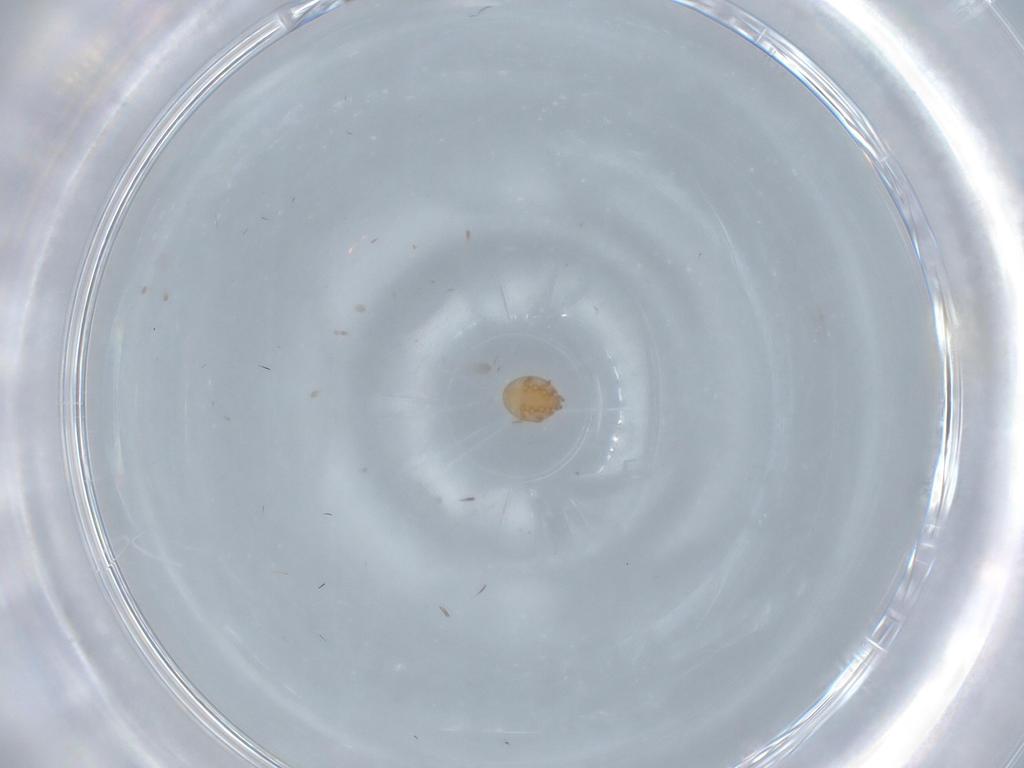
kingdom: Animalia
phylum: Arthropoda
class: Arachnida
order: Trombidiformes
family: Erythraeidae
